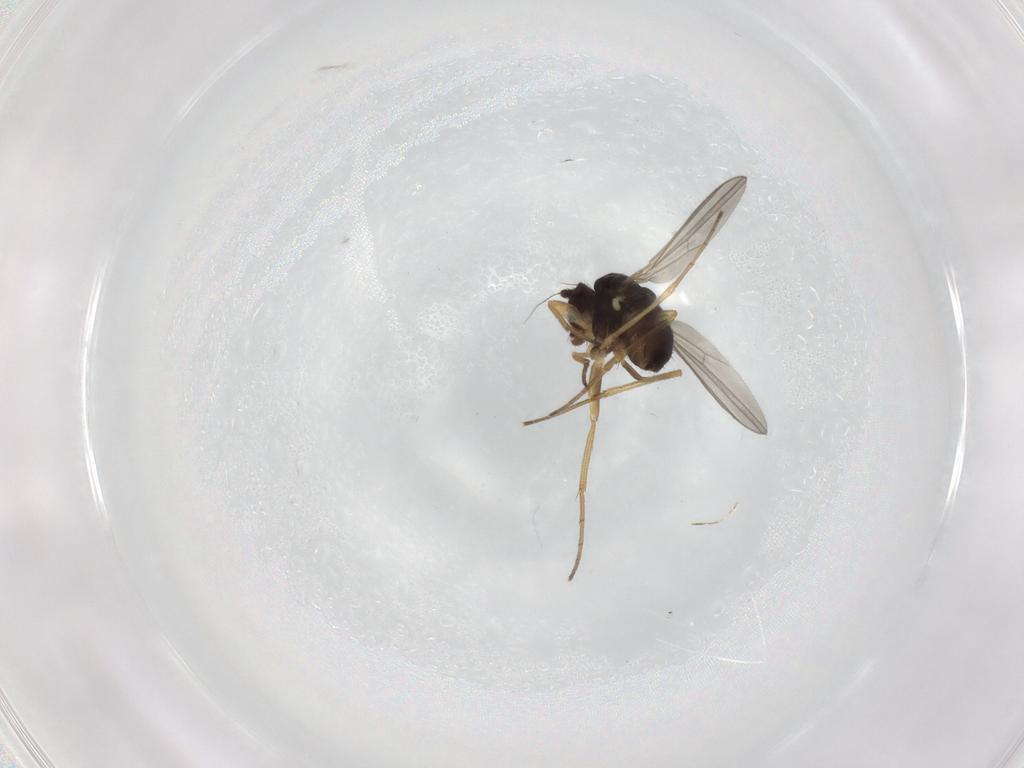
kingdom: Animalia
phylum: Arthropoda
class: Insecta
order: Diptera
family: Dolichopodidae
